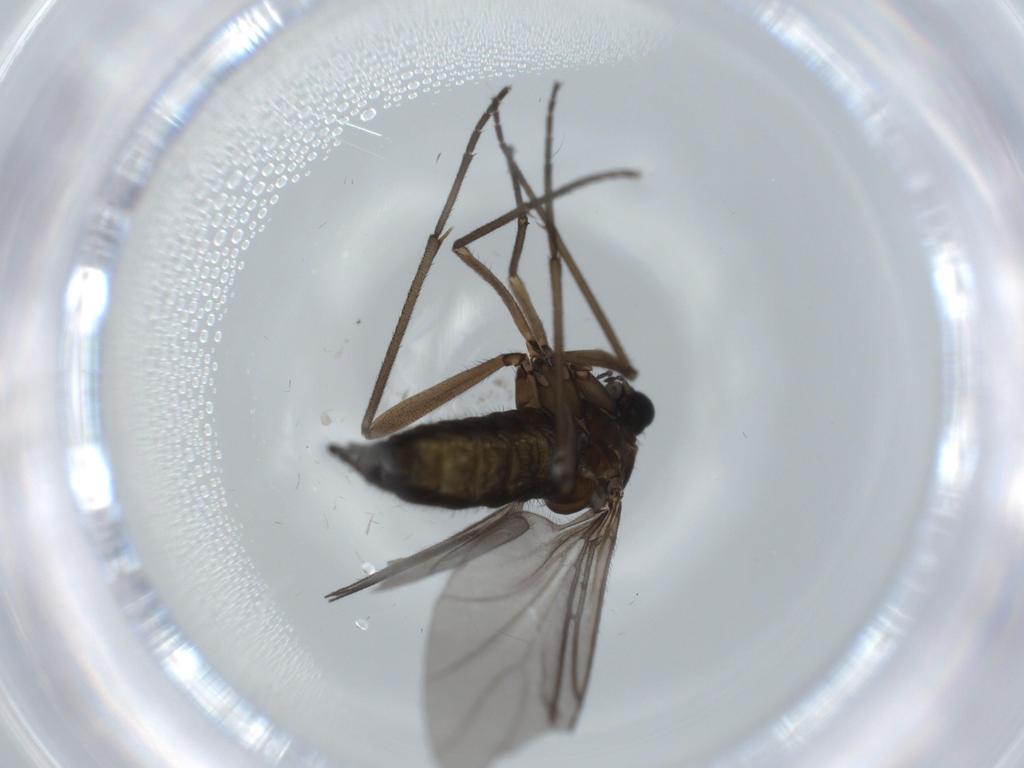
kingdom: Animalia
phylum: Arthropoda
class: Insecta
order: Diptera
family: Sciaridae
